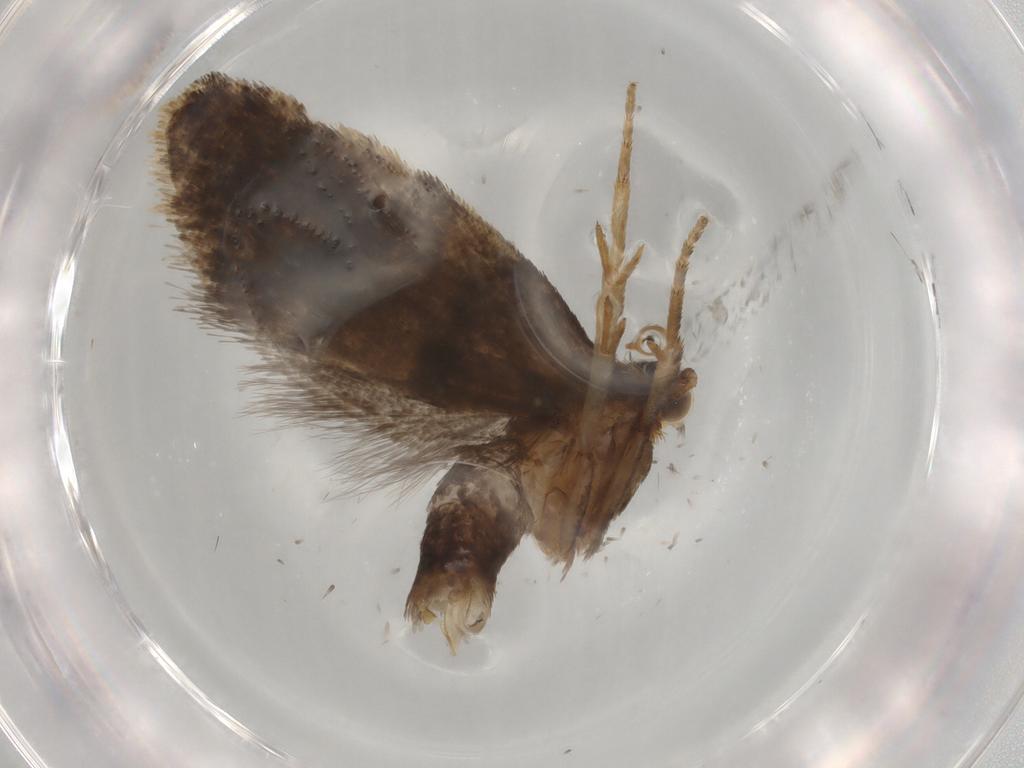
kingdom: Animalia
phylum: Arthropoda
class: Insecta
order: Lepidoptera
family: Tortricidae
